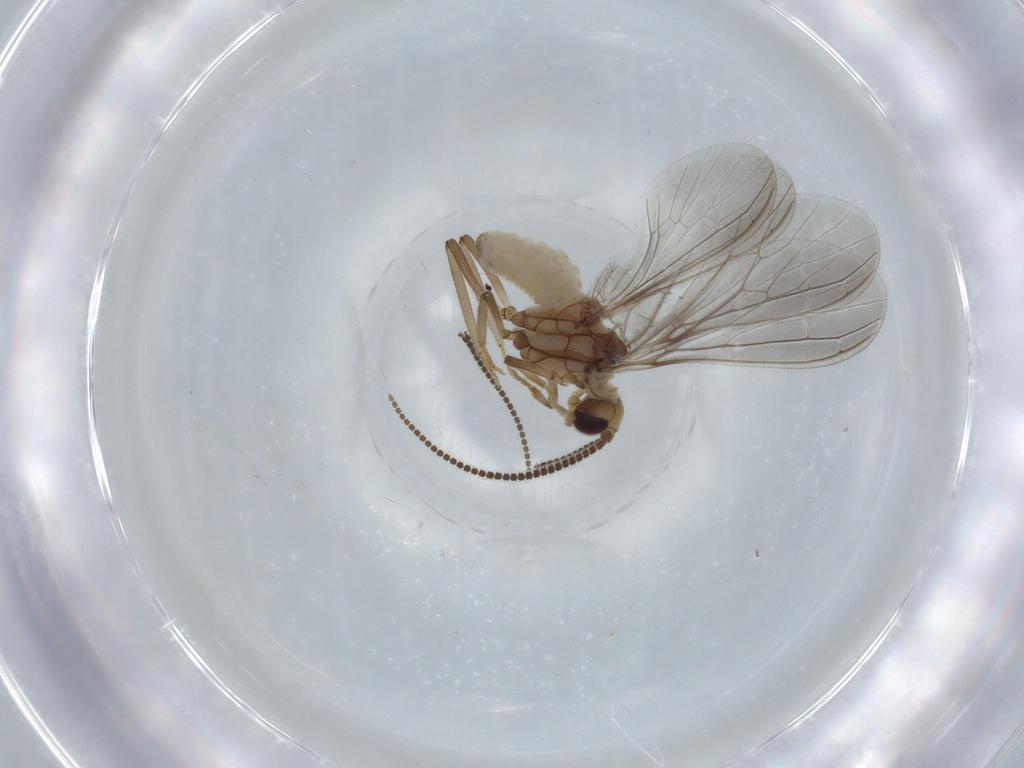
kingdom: Animalia
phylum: Arthropoda
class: Insecta
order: Neuroptera
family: Coniopterygidae
